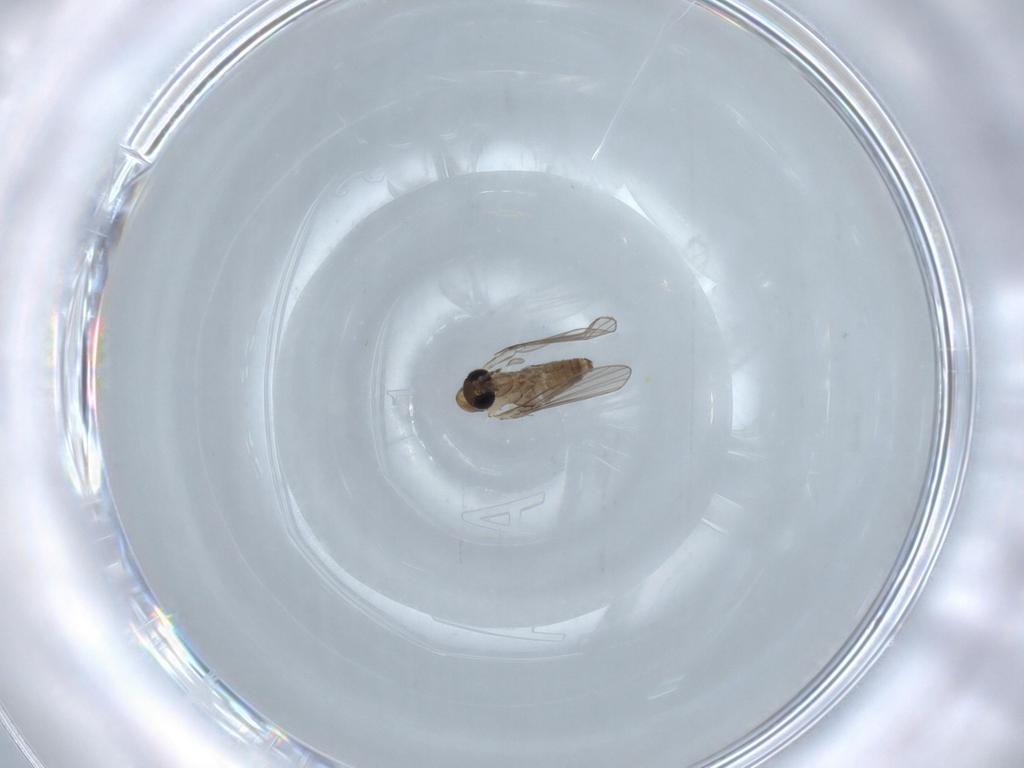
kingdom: Animalia
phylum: Arthropoda
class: Insecta
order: Diptera
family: Psychodidae
